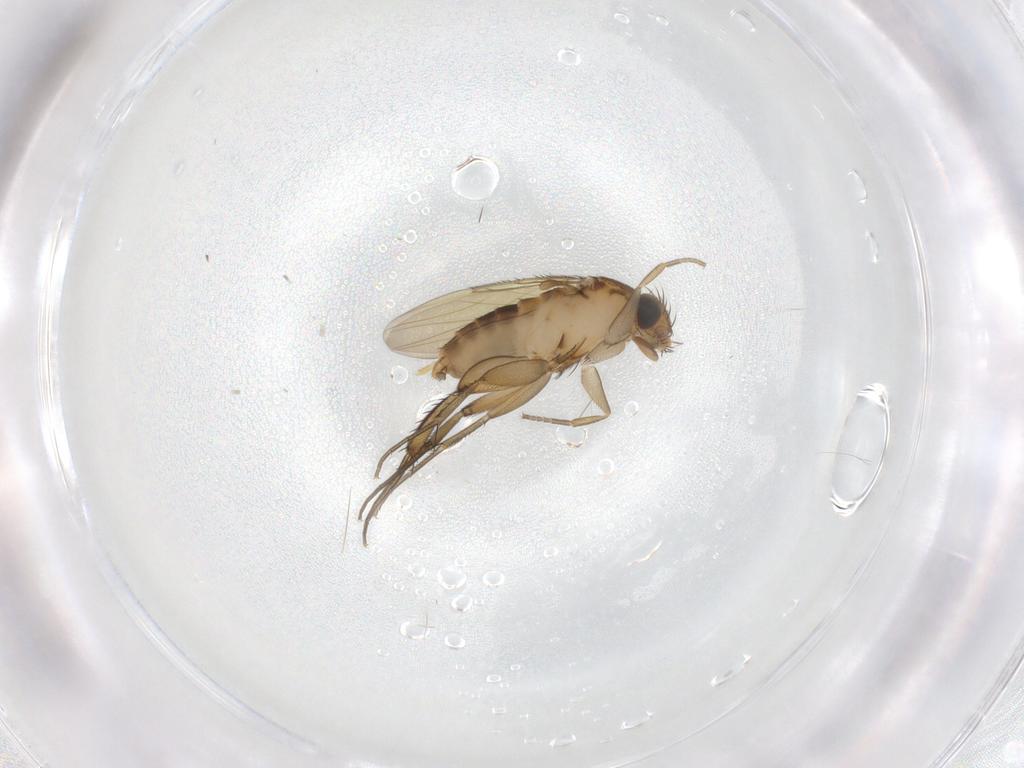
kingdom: Animalia
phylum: Arthropoda
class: Insecta
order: Diptera
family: Phoridae
